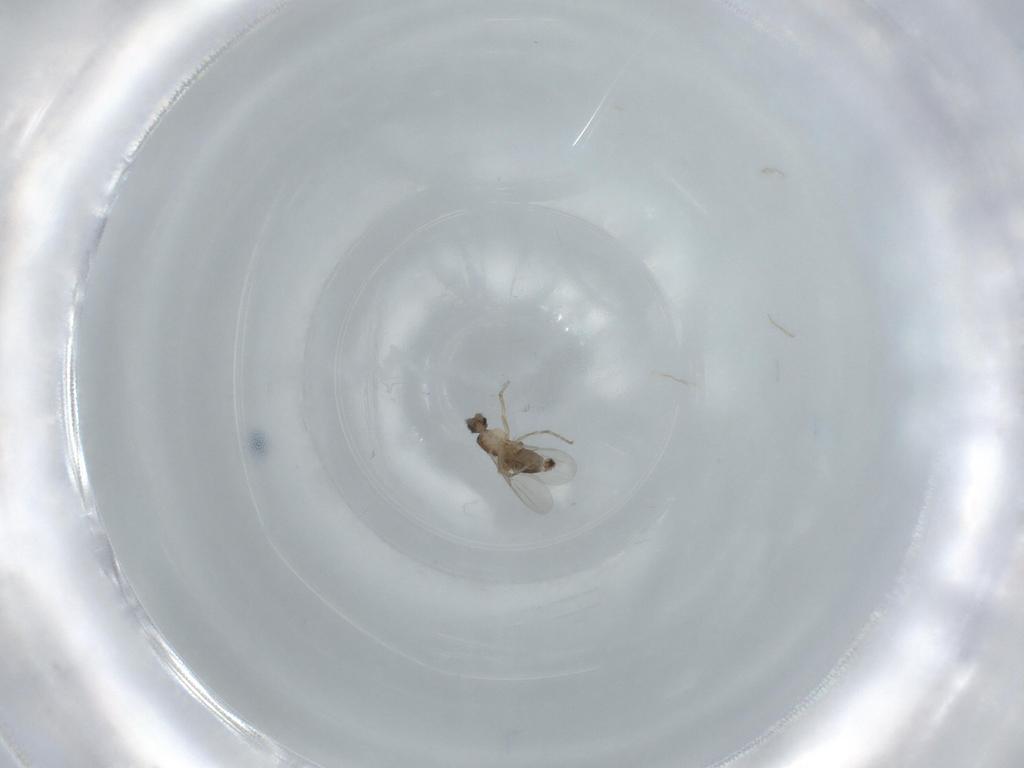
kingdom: Animalia
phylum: Arthropoda
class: Insecta
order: Diptera
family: Phoridae
